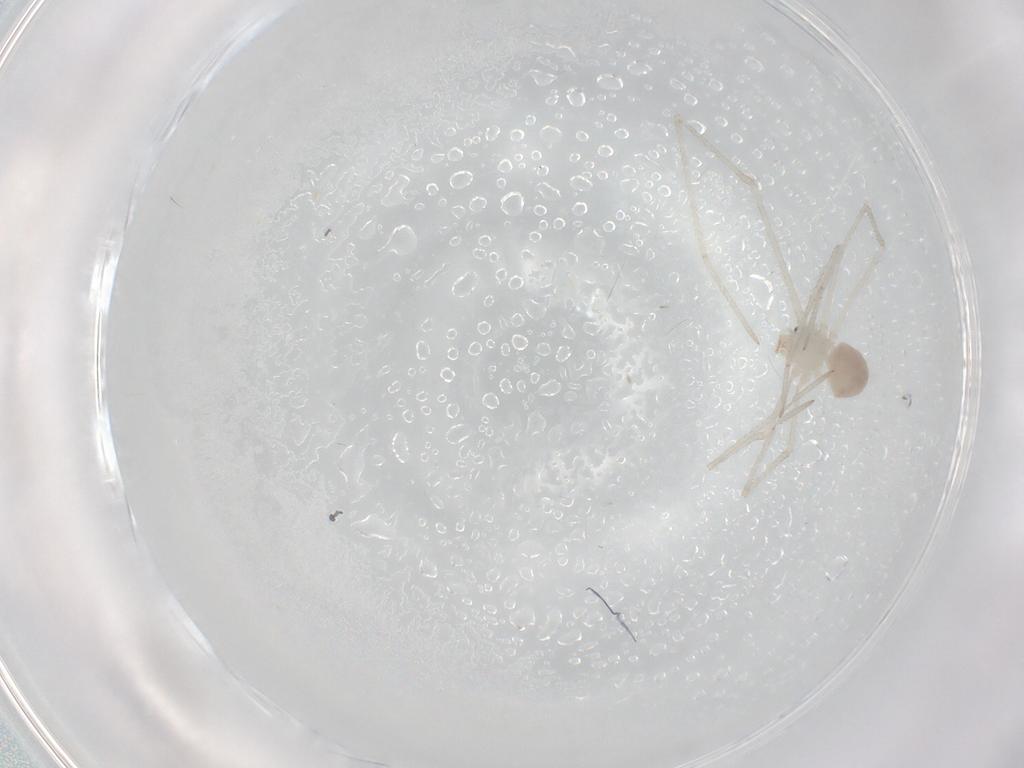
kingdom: Animalia
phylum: Arthropoda
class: Arachnida
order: Araneae
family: Pholcidae
